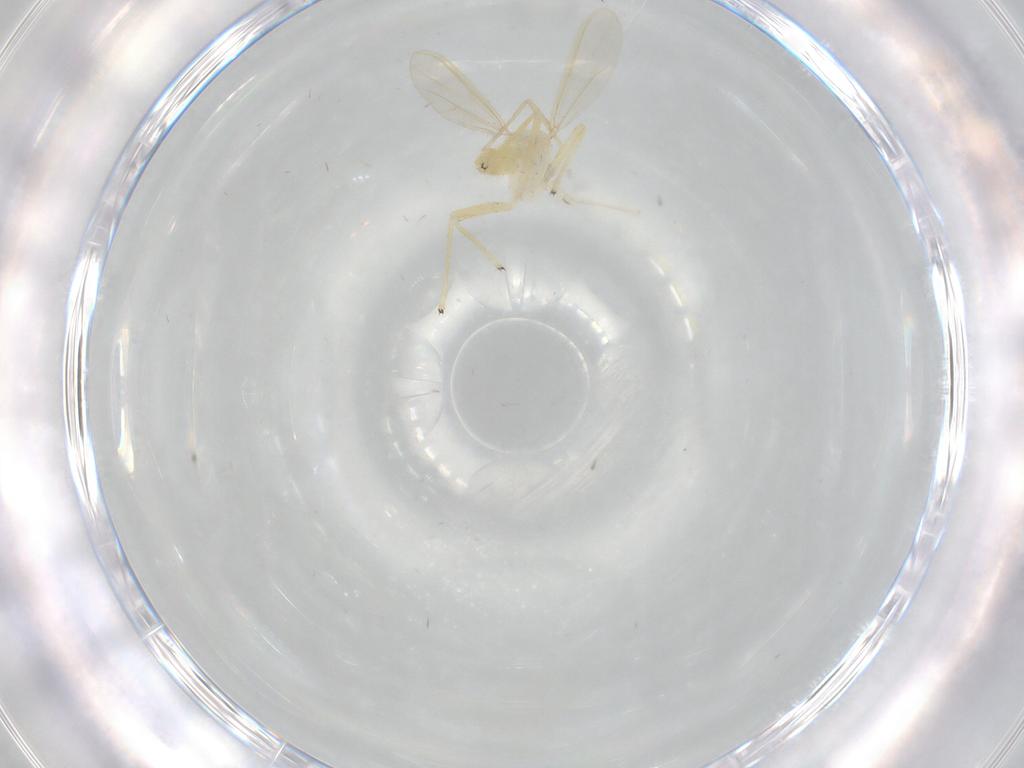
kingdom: Animalia
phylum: Arthropoda
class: Insecta
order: Diptera
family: Chironomidae
